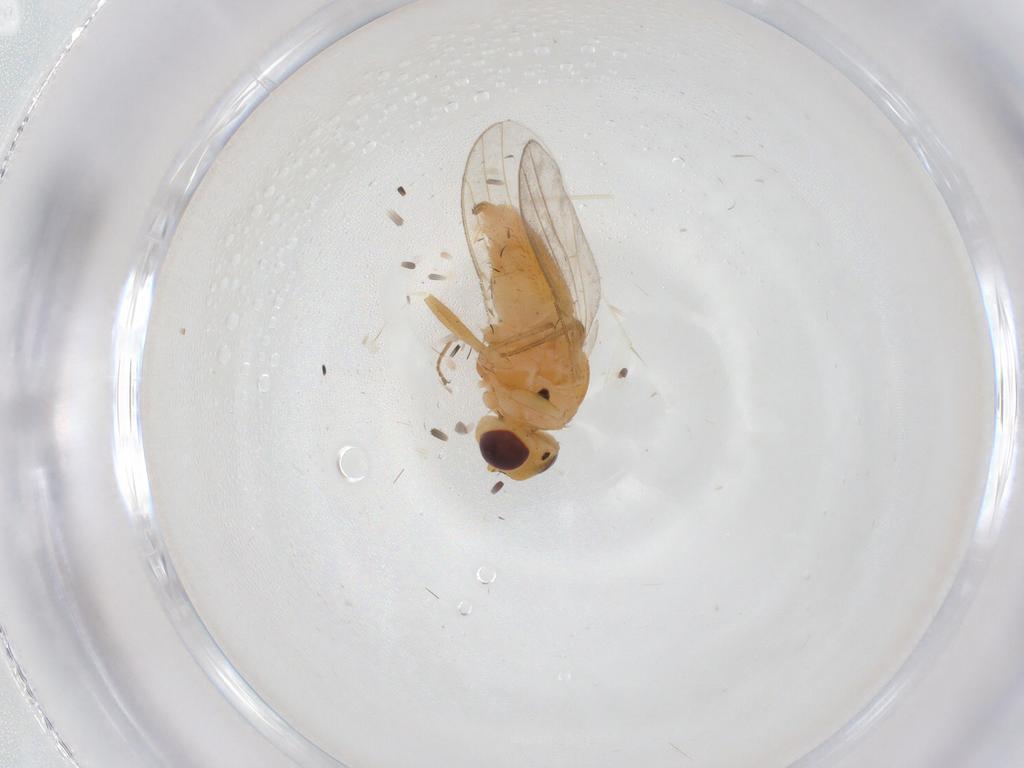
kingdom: Animalia
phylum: Arthropoda
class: Insecta
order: Diptera
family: Chloropidae
